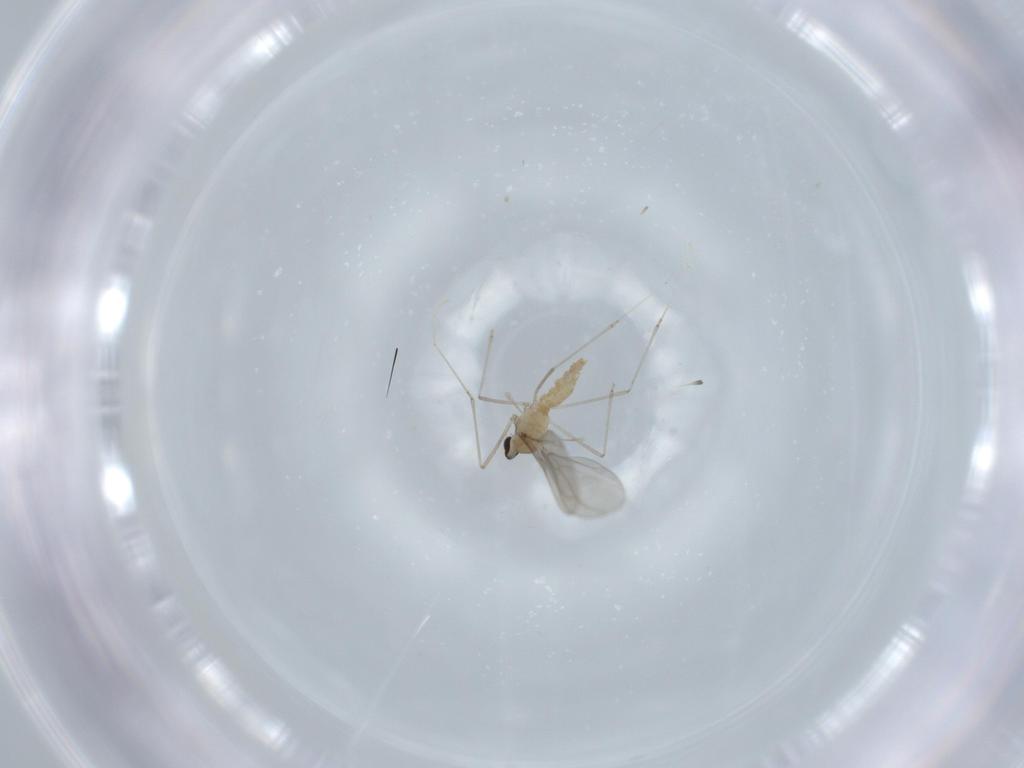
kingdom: Animalia
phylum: Arthropoda
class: Insecta
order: Diptera
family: Cecidomyiidae
